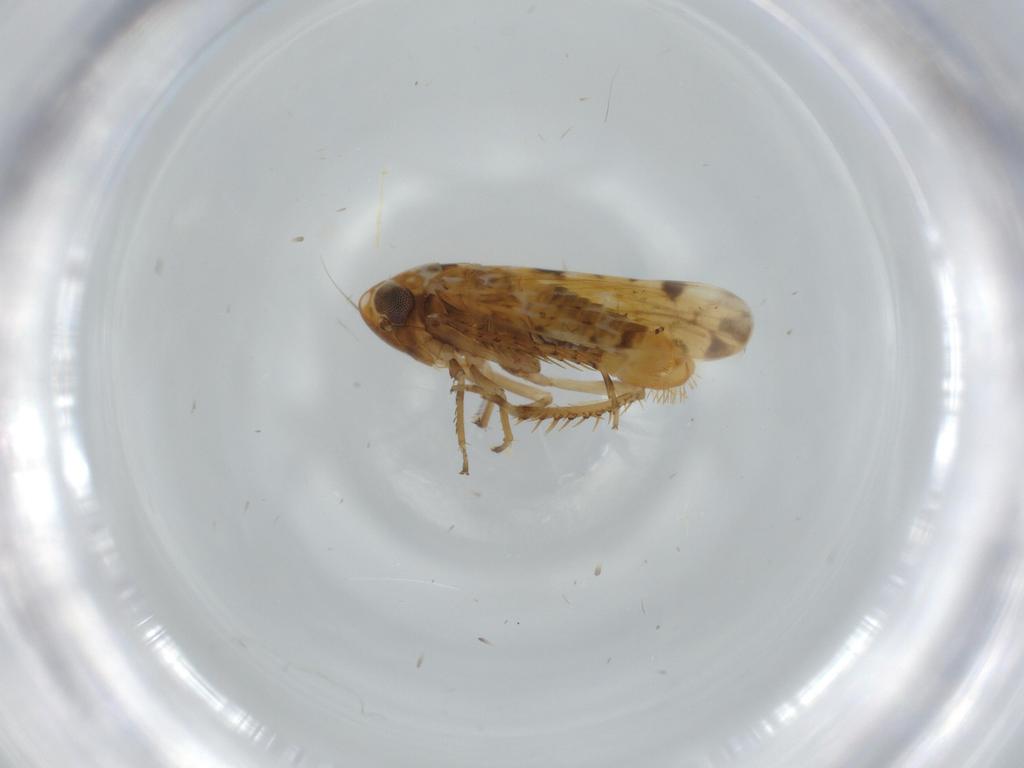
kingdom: Animalia
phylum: Arthropoda
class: Insecta
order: Hemiptera
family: Cicadellidae
